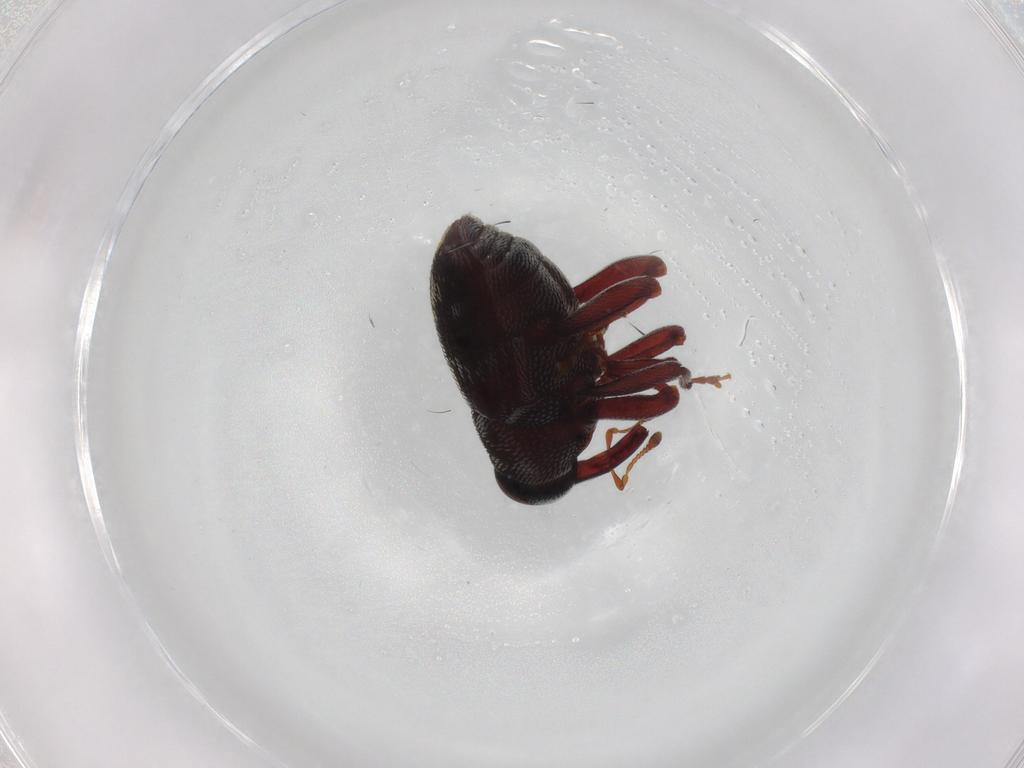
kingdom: Animalia
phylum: Arthropoda
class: Insecta
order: Coleoptera
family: Curculionidae
